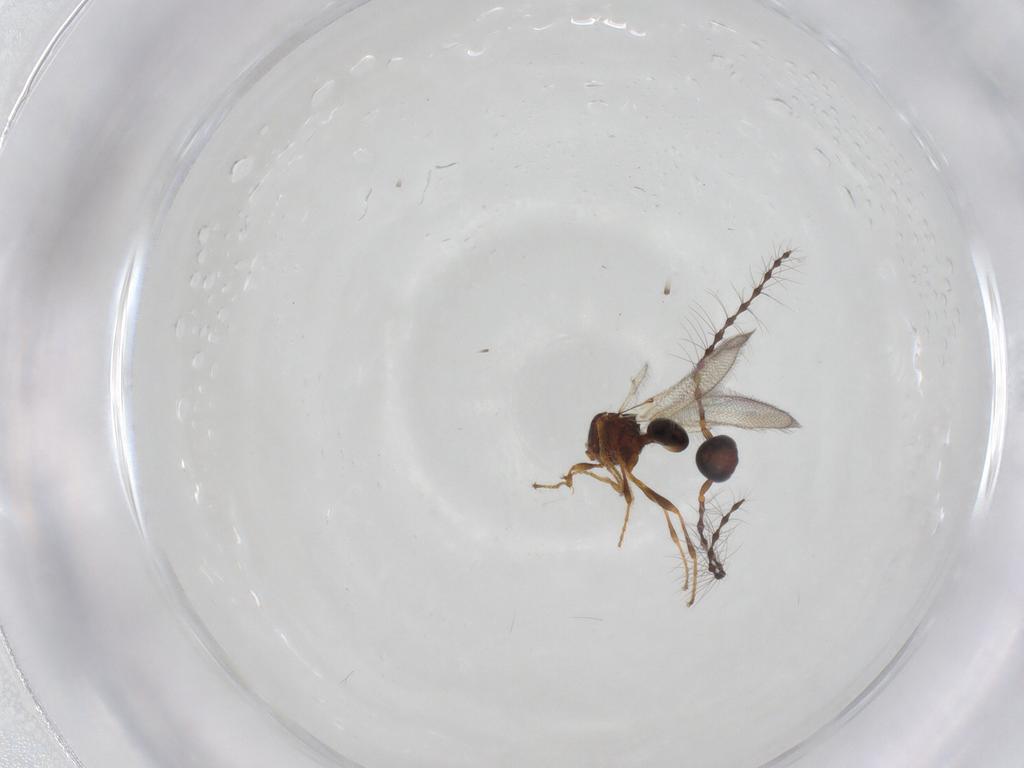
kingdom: Animalia
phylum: Arthropoda
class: Insecta
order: Hymenoptera
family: Diapriidae
